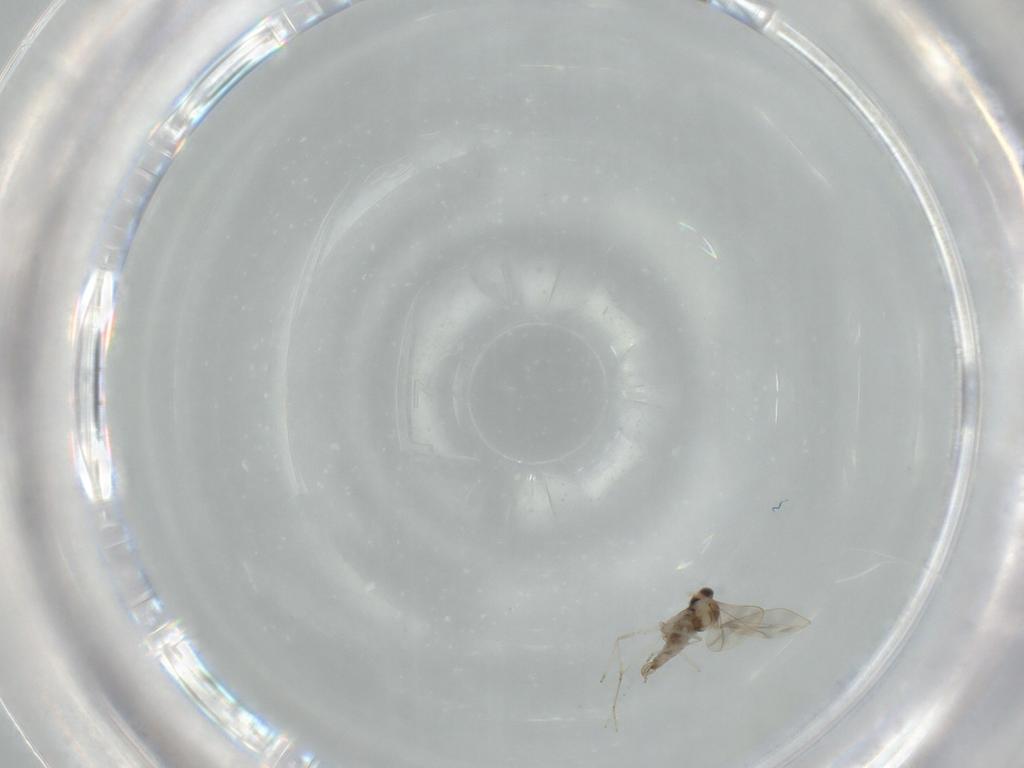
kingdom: Animalia
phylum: Arthropoda
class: Insecta
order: Diptera
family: Cecidomyiidae
